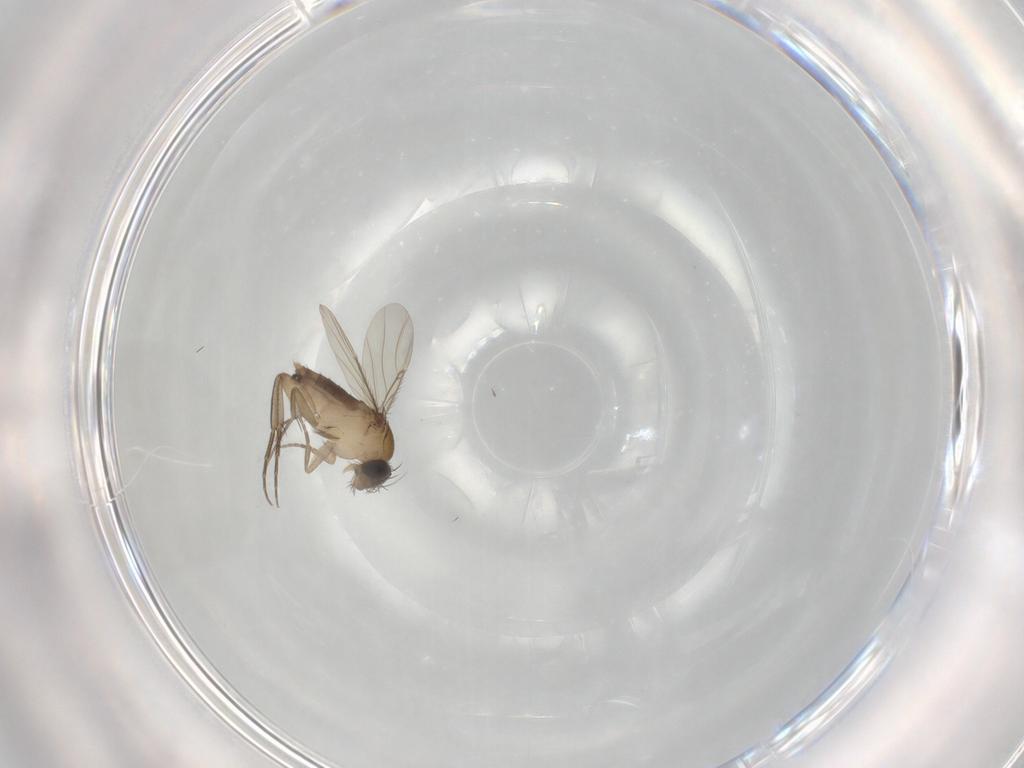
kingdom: Animalia
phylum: Arthropoda
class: Insecta
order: Diptera
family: Phoridae
